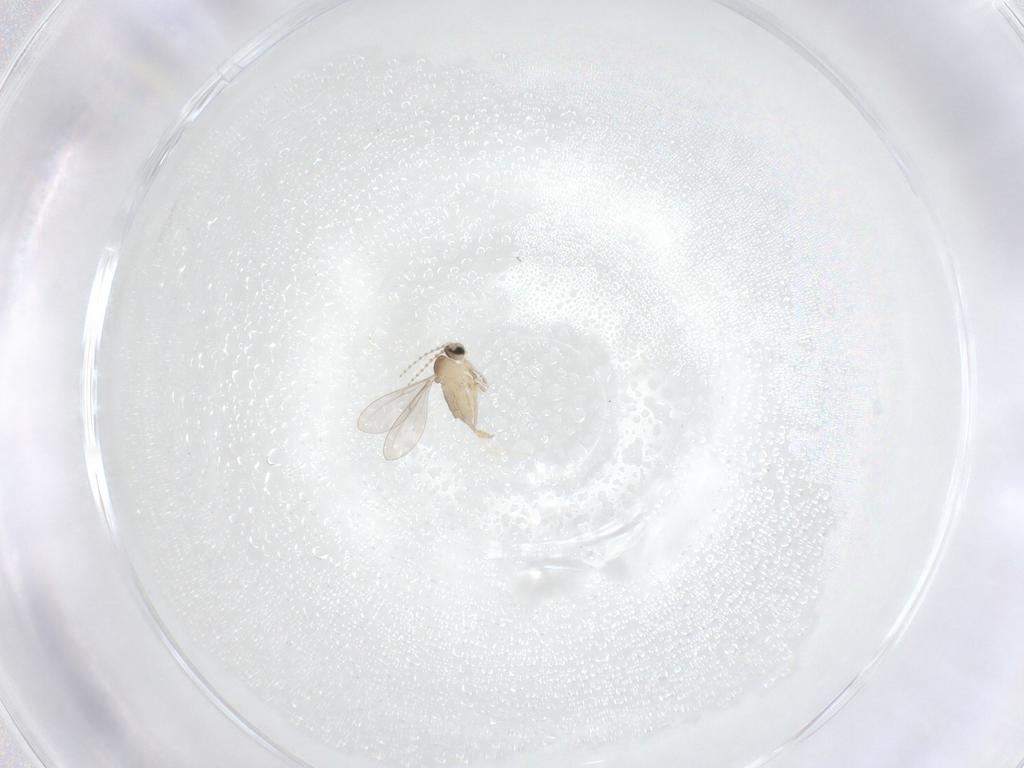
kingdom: Animalia
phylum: Arthropoda
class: Insecta
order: Diptera
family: Cecidomyiidae
